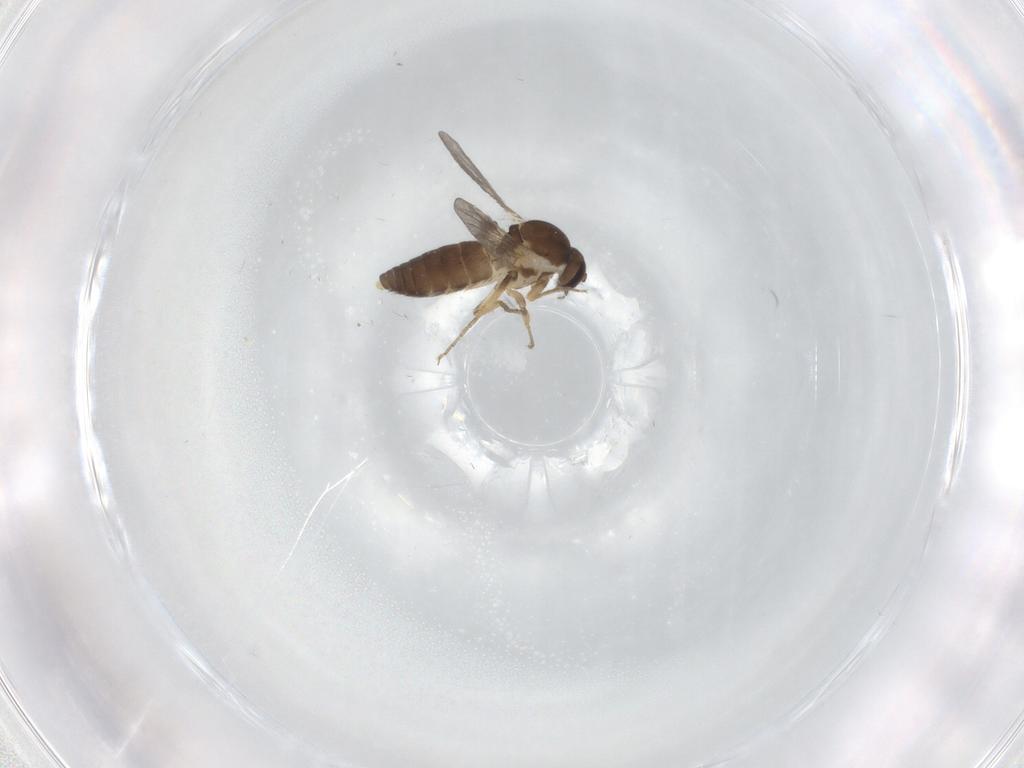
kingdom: Animalia
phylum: Arthropoda
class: Insecta
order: Diptera
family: Ceratopogonidae
